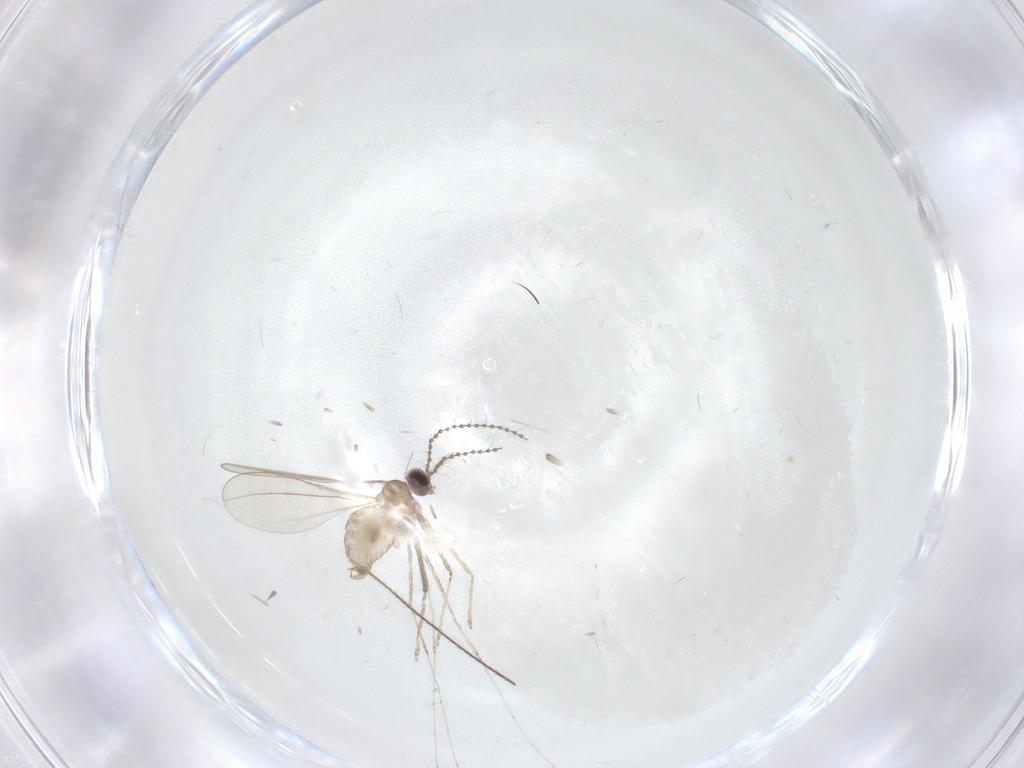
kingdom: Animalia
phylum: Arthropoda
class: Insecta
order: Diptera
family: Cecidomyiidae
